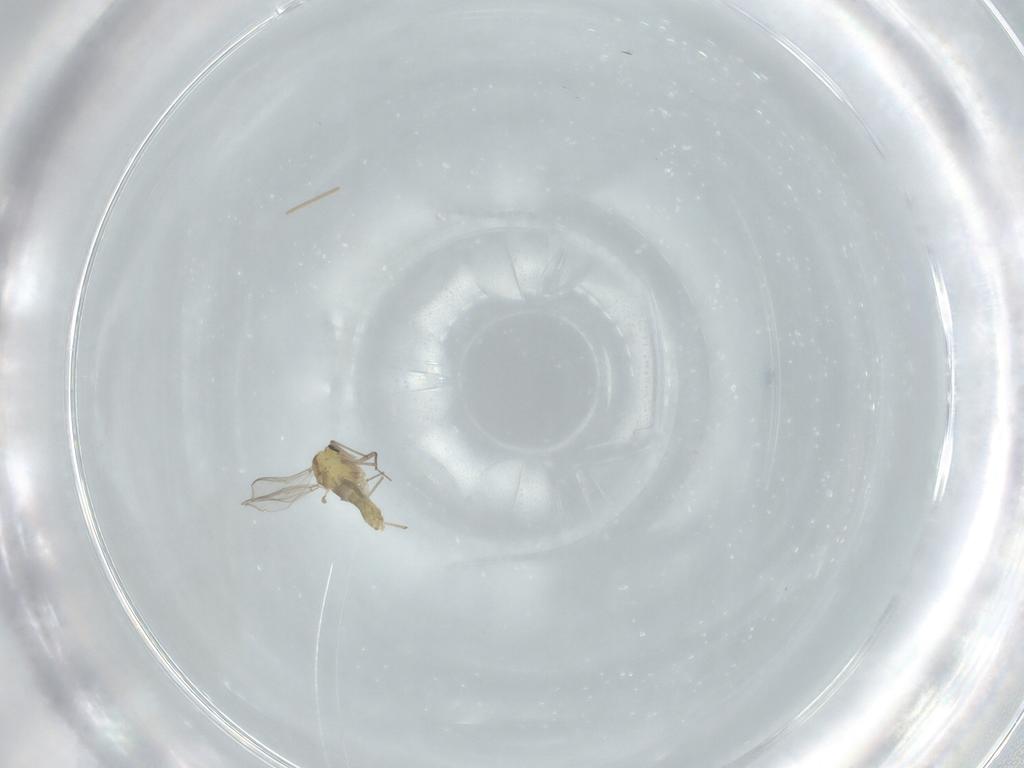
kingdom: Animalia
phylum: Arthropoda
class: Insecta
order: Diptera
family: Chironomidae
